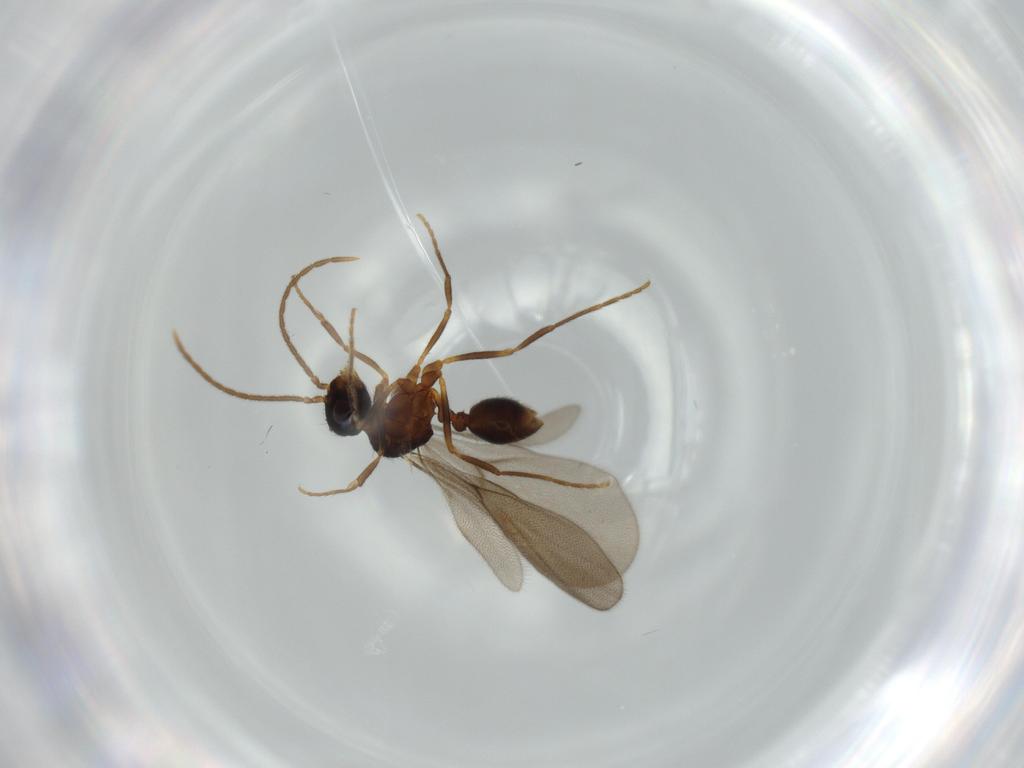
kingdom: Animalia
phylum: Arthropoda
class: Insecta
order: Hymenoptera
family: Formicidae
